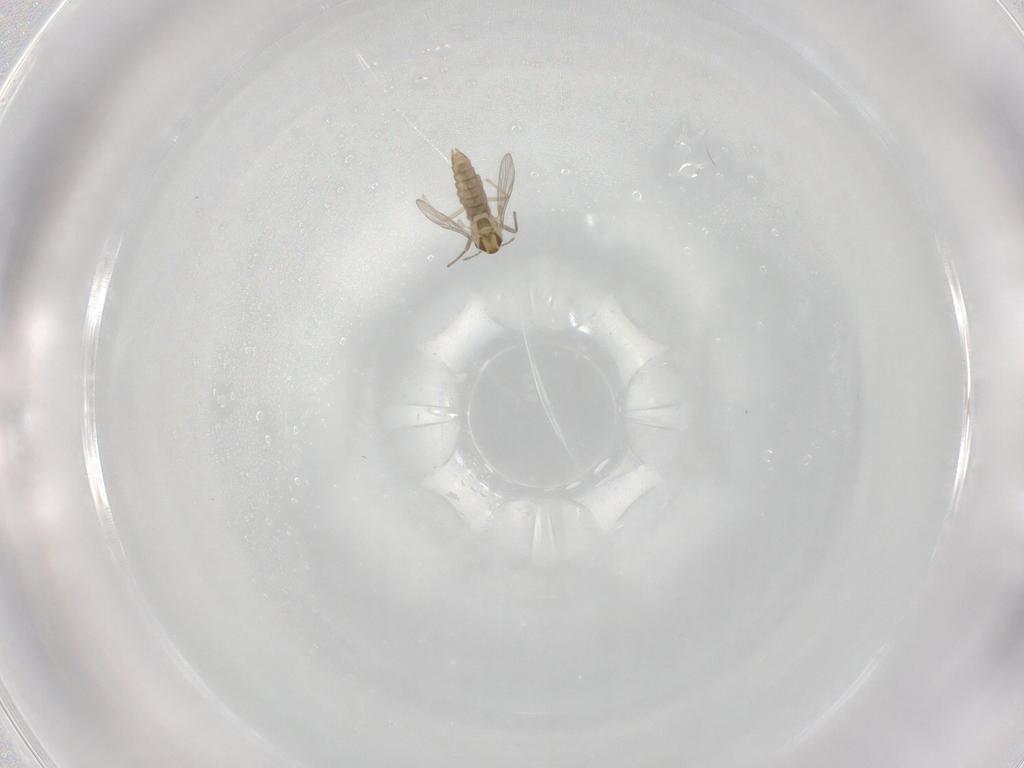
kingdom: Animalia
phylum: Arthropoda
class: Insecta
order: Diptera
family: Chironomidae
